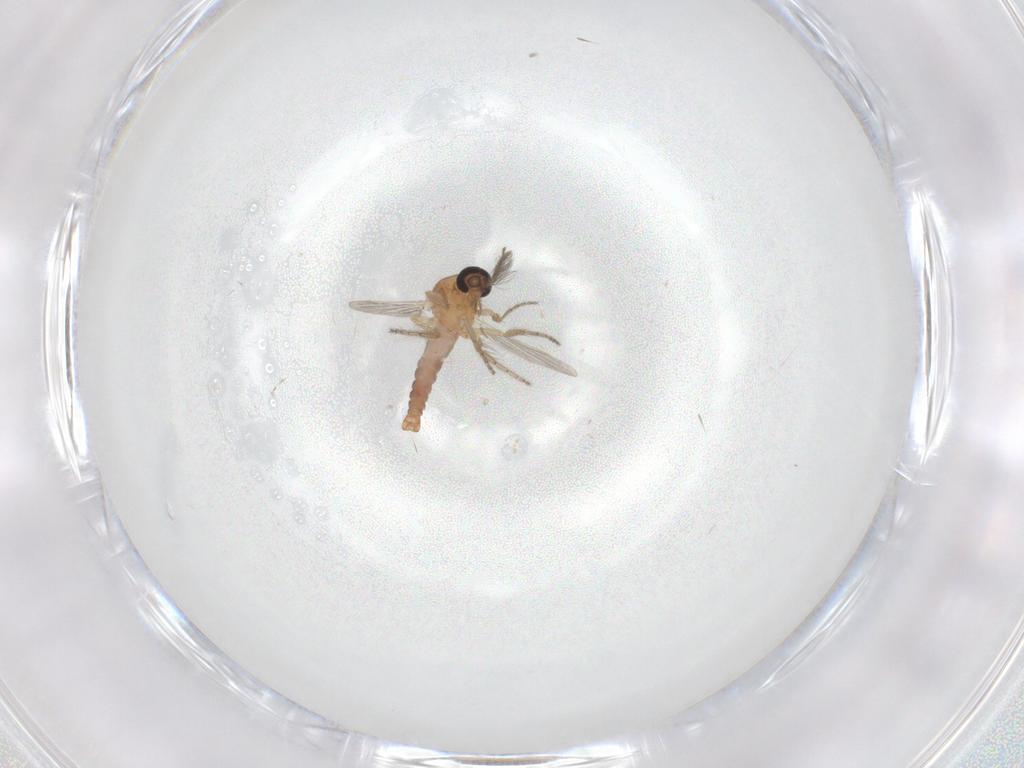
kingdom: Animalia
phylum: Arthropoda
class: Insecta
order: Diptera
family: Ceratopogonidae
